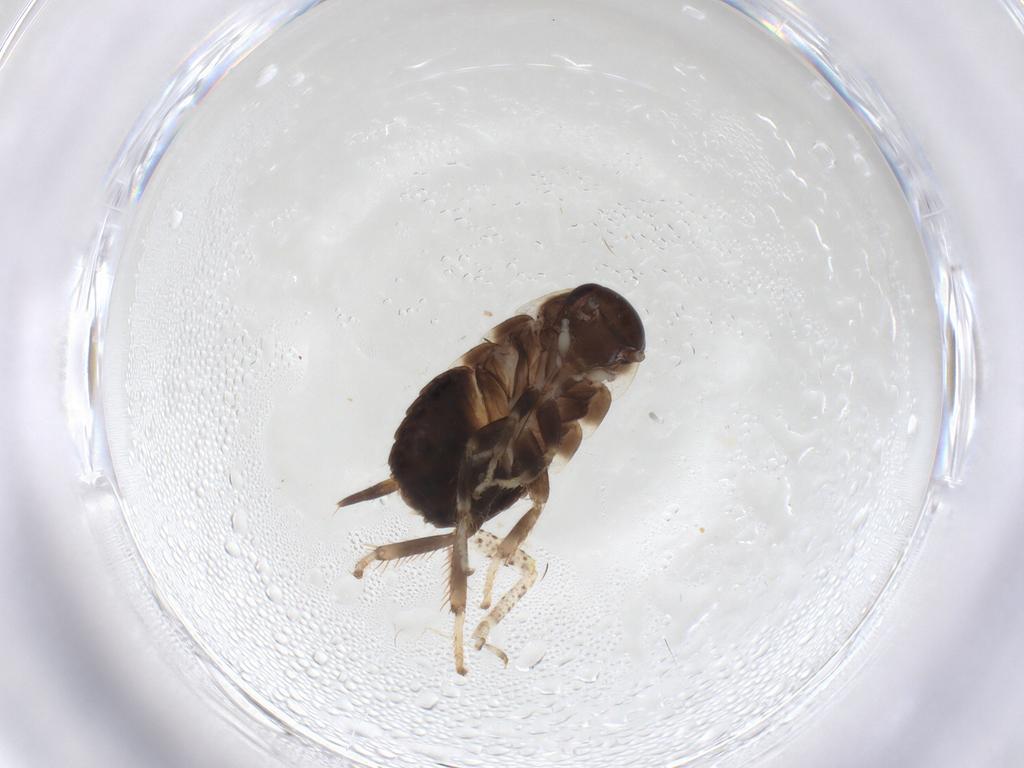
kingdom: Animalia
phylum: Arthropoda
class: Insecta
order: Blattodea
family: Blaberidae
